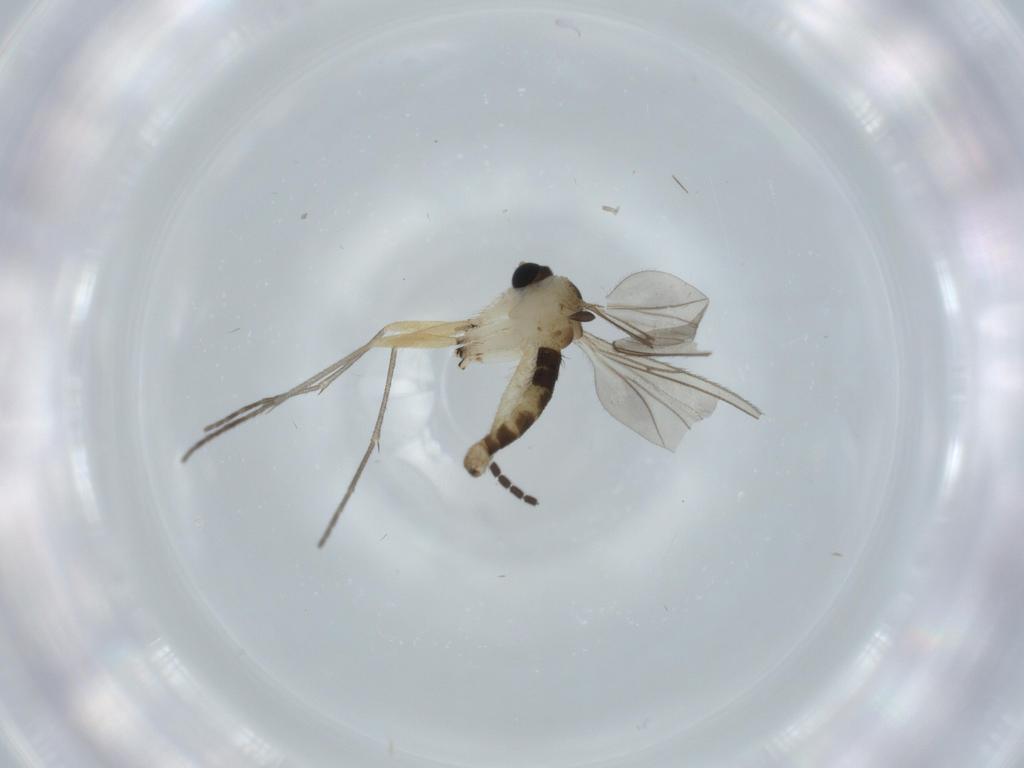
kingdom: Animalia
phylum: Arthropoda
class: Insecta
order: Diptera
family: Sciaridae
